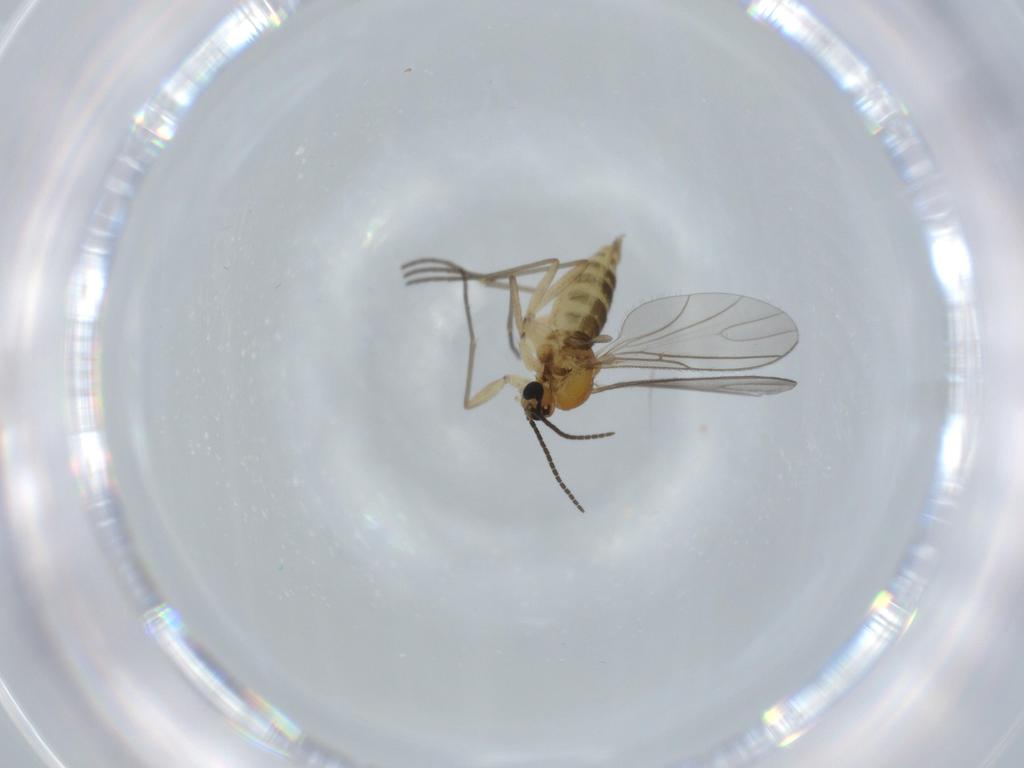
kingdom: Animalia
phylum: Arthropoda
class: Insecta
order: Diptera
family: Sciaridae
